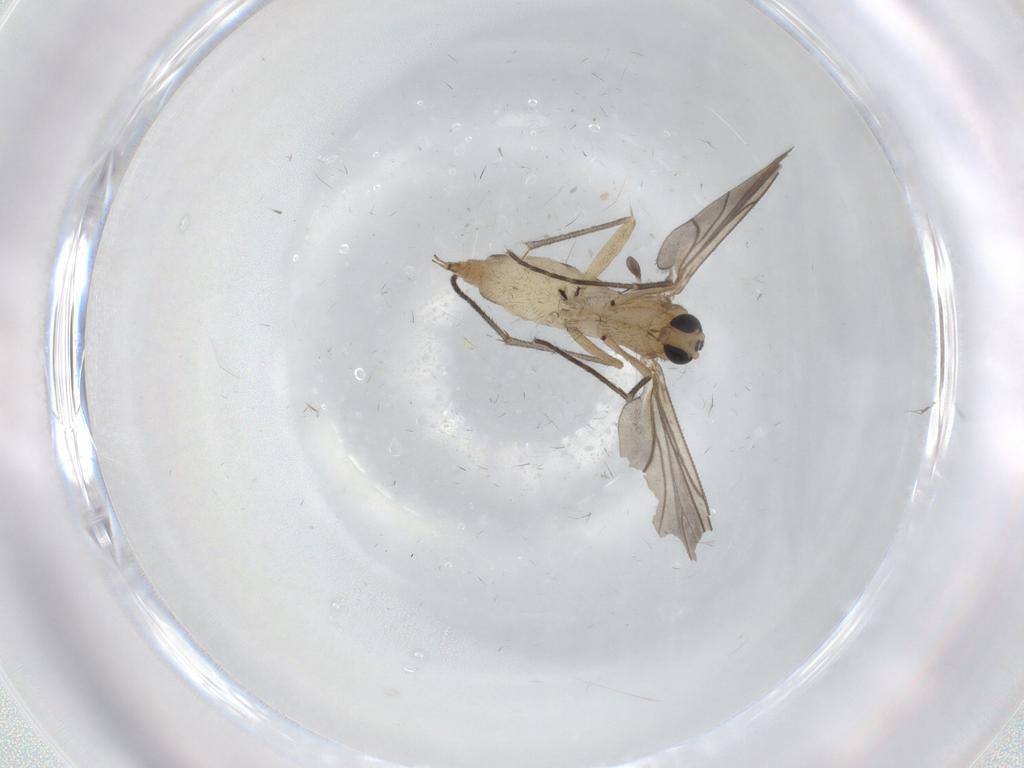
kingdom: Animalia
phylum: Arthropoda
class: Insecta
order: Diptera
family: Sciaridae
